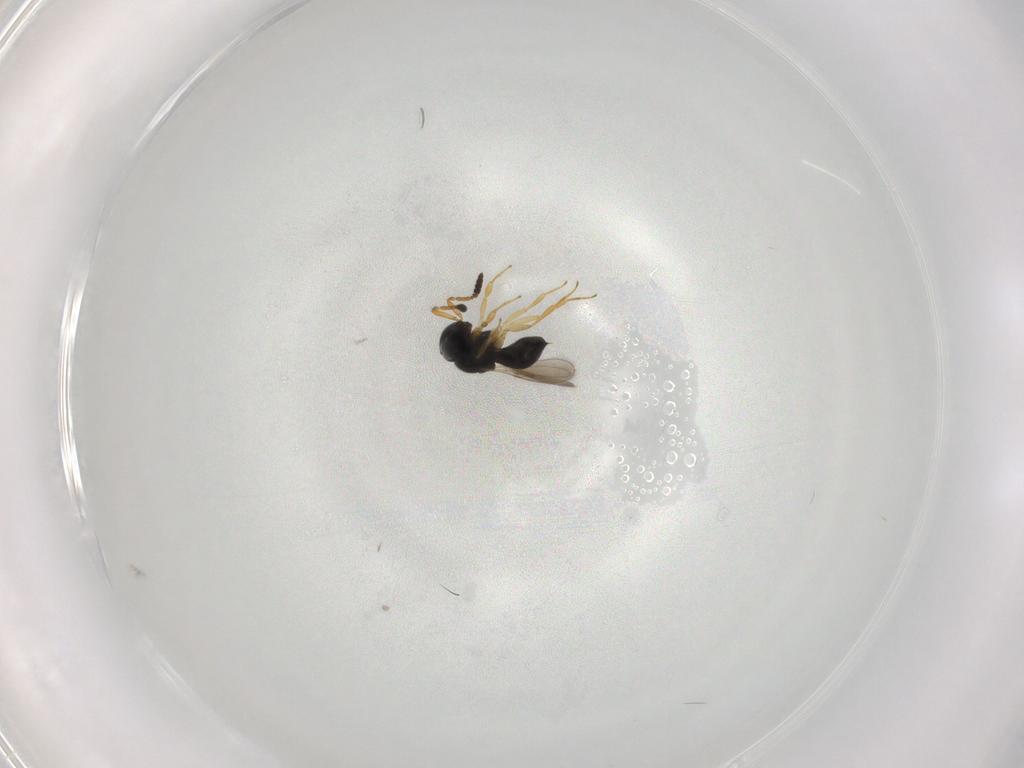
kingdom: Animalia
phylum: Arthropoda
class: Insecta
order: Hymenoptera
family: Scelionidae
